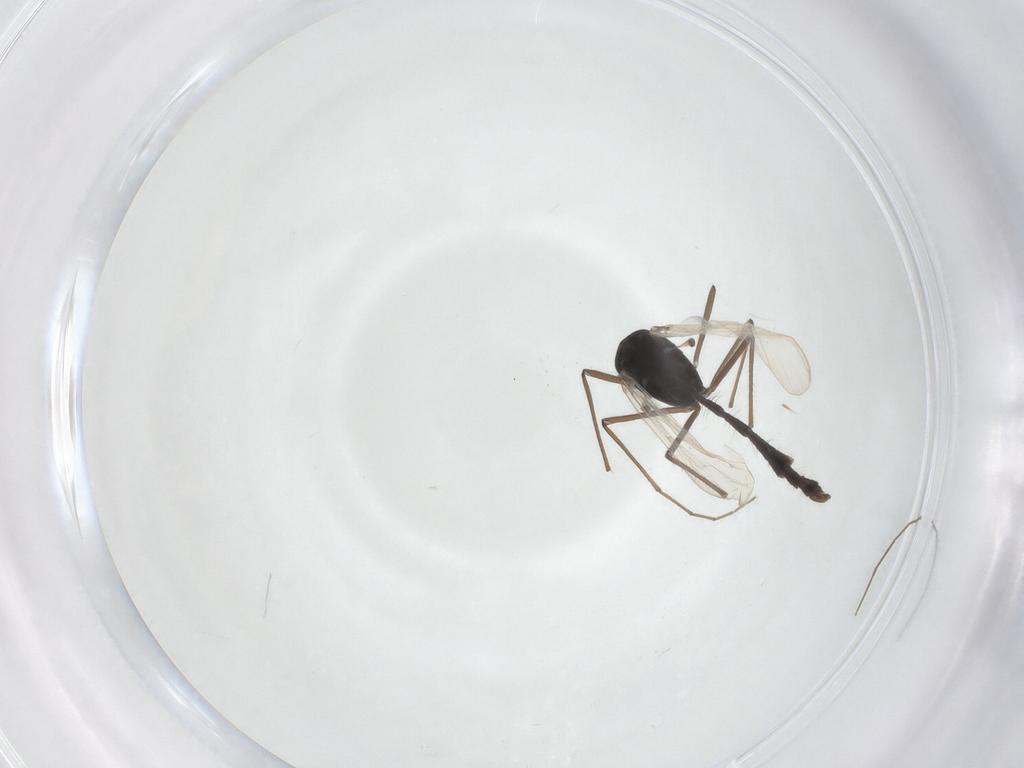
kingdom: Animalia
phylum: Arthropoda
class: Insecta
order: Diptera
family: Chironomidae
